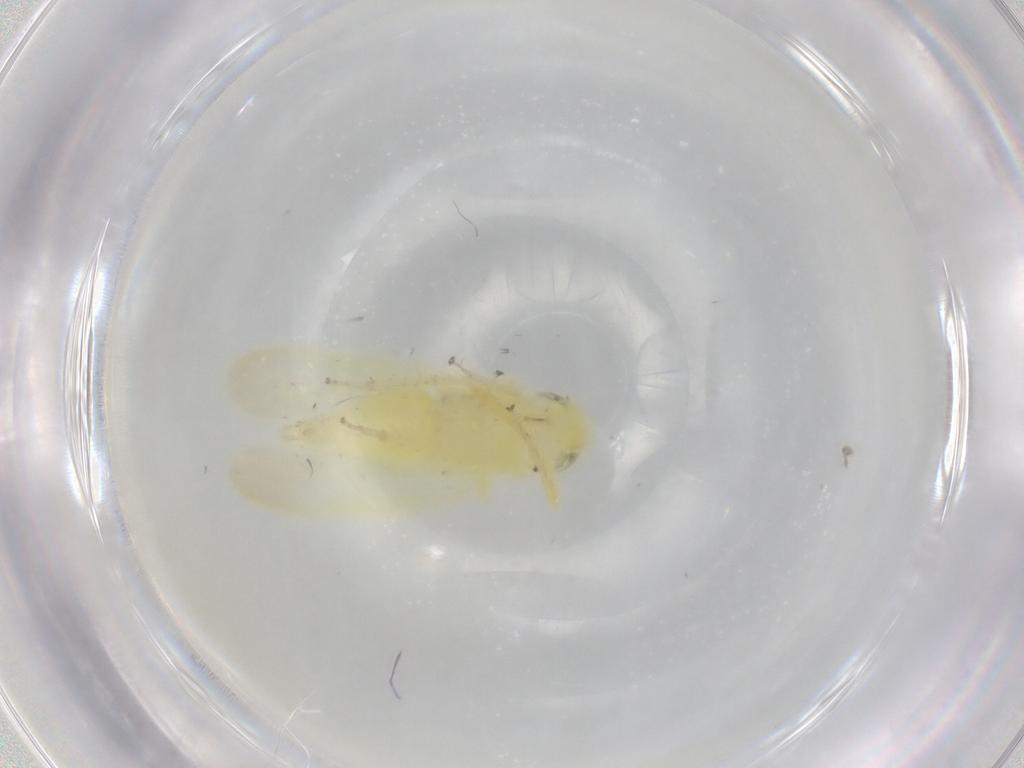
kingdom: Animalia
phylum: Arthropoda
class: Insecta
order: Hemiptera
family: Cicadellidae
